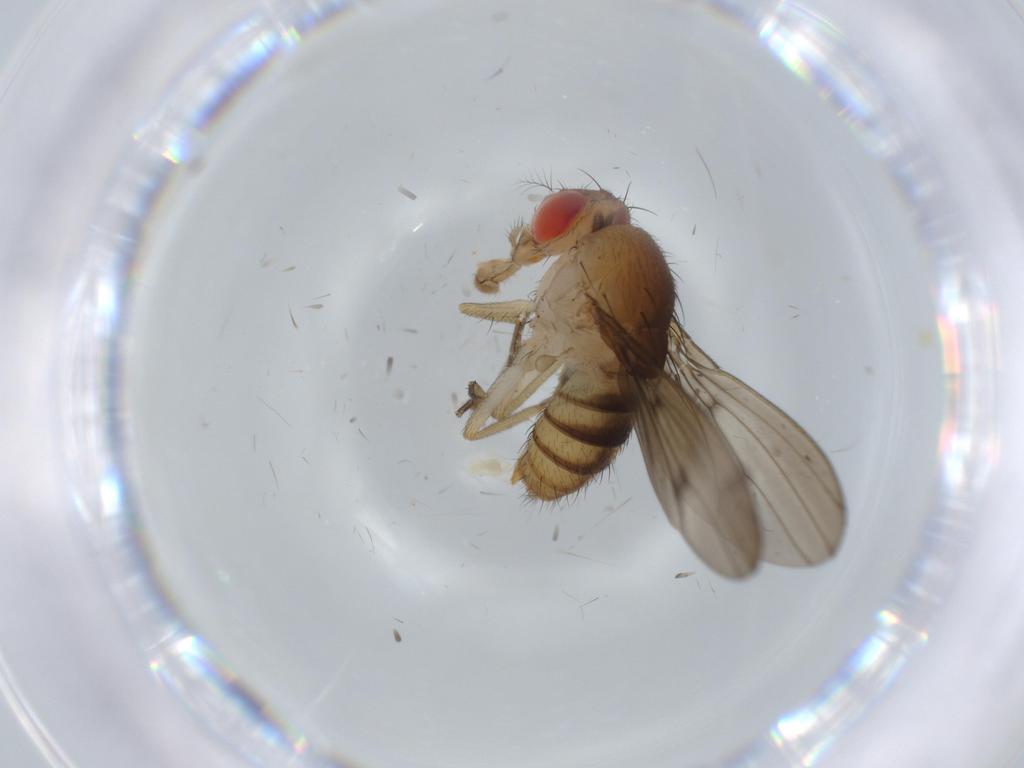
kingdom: Animalia
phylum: Arthropoda
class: Insecta
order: Diptera
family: Drosophilidae
